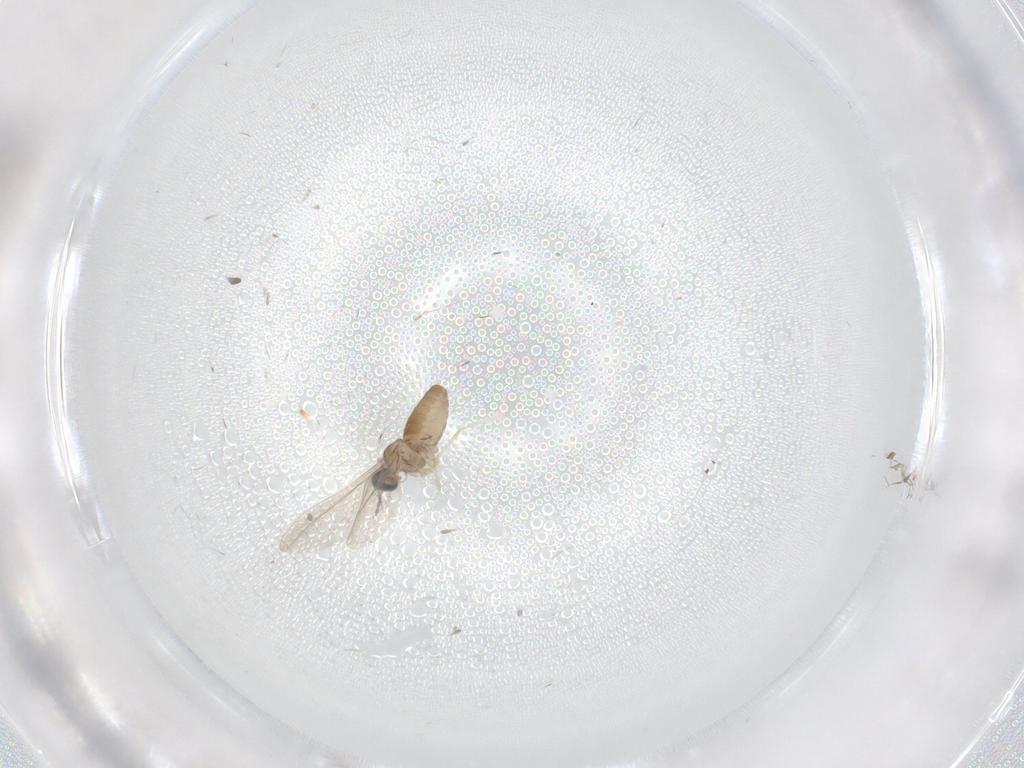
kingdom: Animalia
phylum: Arthropoda
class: Insecta
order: Diptera
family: Cecidomyiidae
